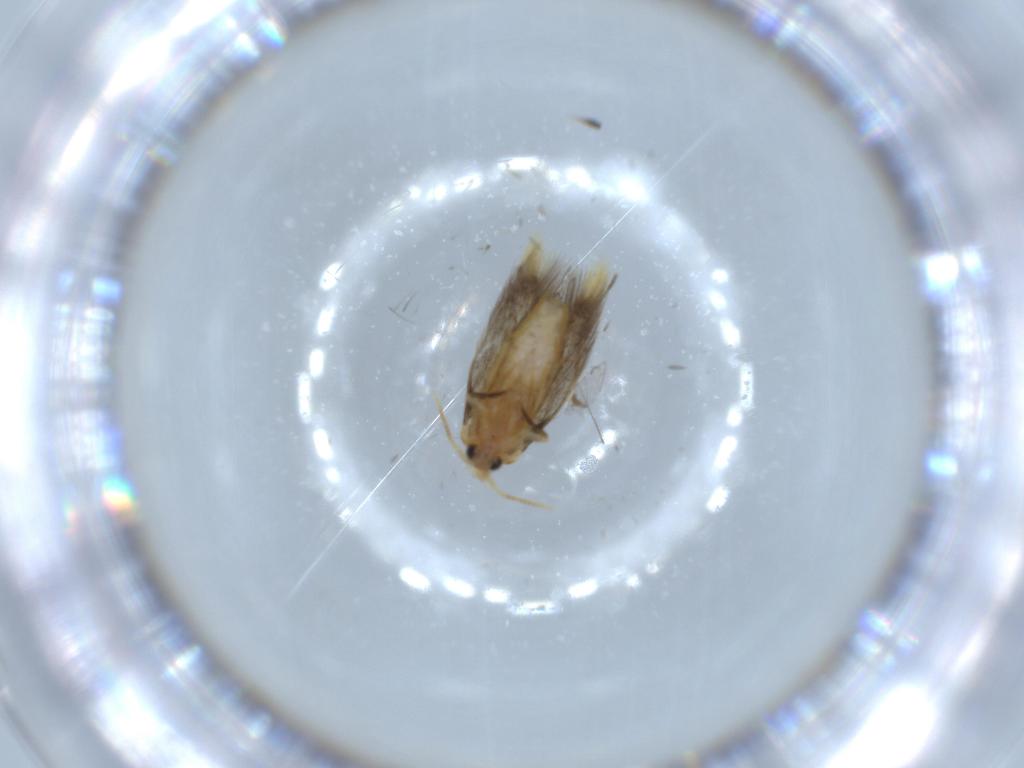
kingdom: Animalia
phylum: Arthropoda
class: Insecta
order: Lepidoptera
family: Copromorphidae
